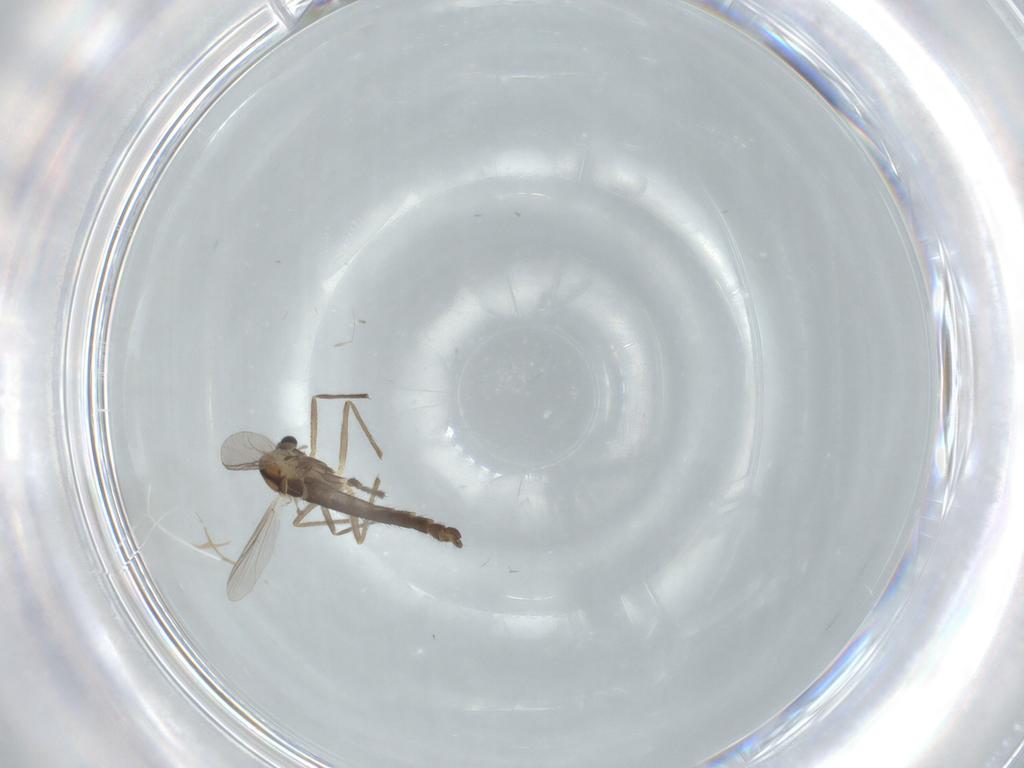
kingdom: Animalia
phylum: Arthropoda
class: Insecta
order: Diptera
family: Chironomidae
